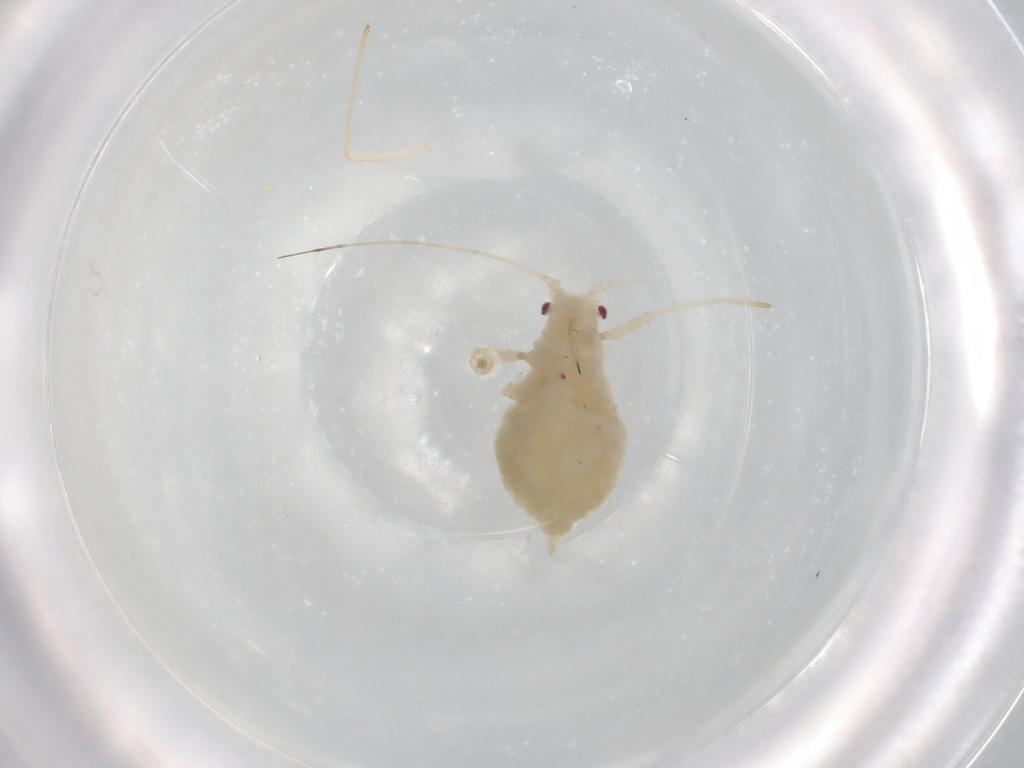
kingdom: Animalia
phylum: Arthropoda
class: Insecta
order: Hemiptera
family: Aphididae
